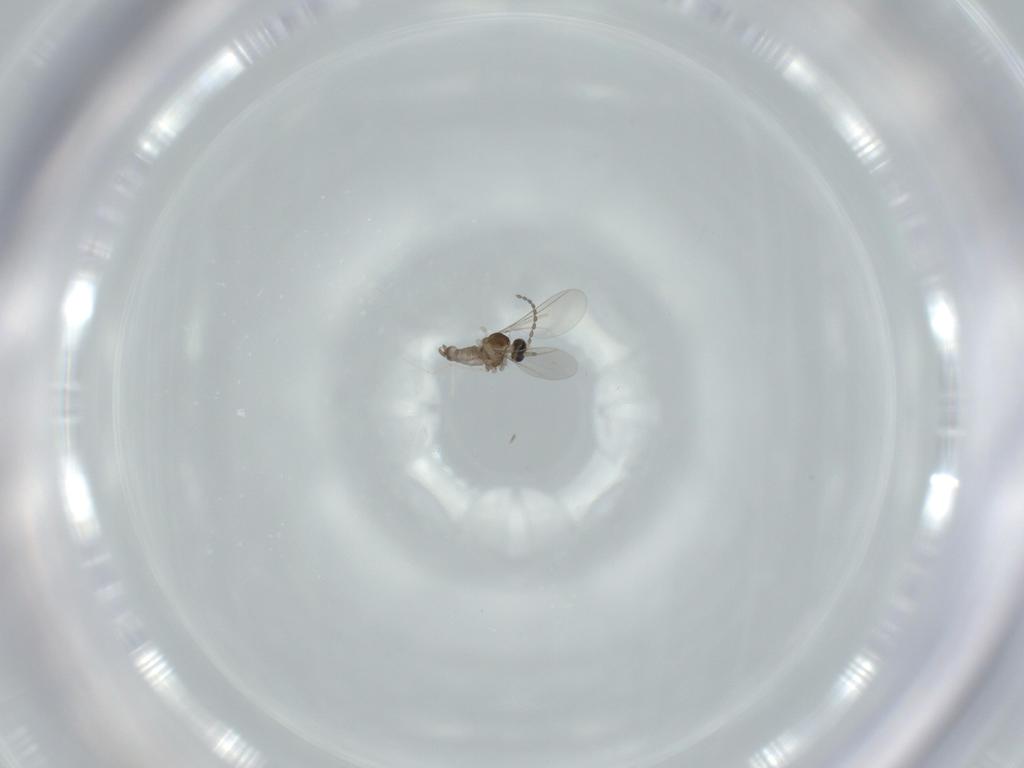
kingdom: Animalia
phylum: Arthropoda
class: Insecta
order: Diptera
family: Cecidomyiidae
